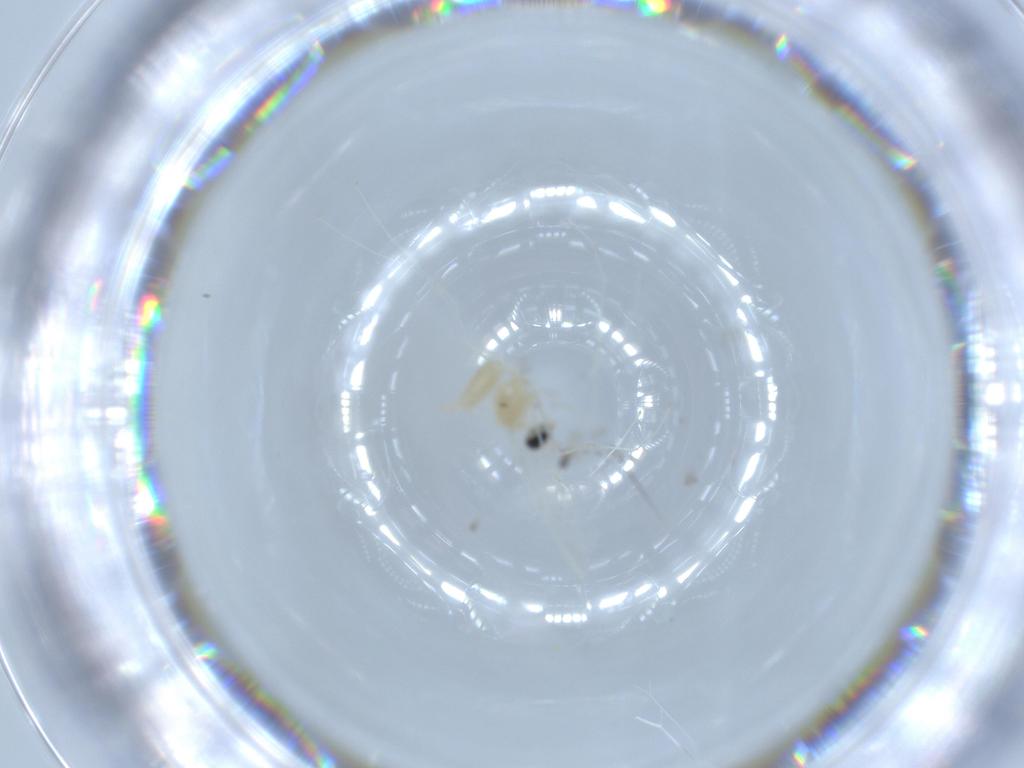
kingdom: Animalia
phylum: Arthropoda
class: Insecta
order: Diptera
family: Cecidomyiidae
